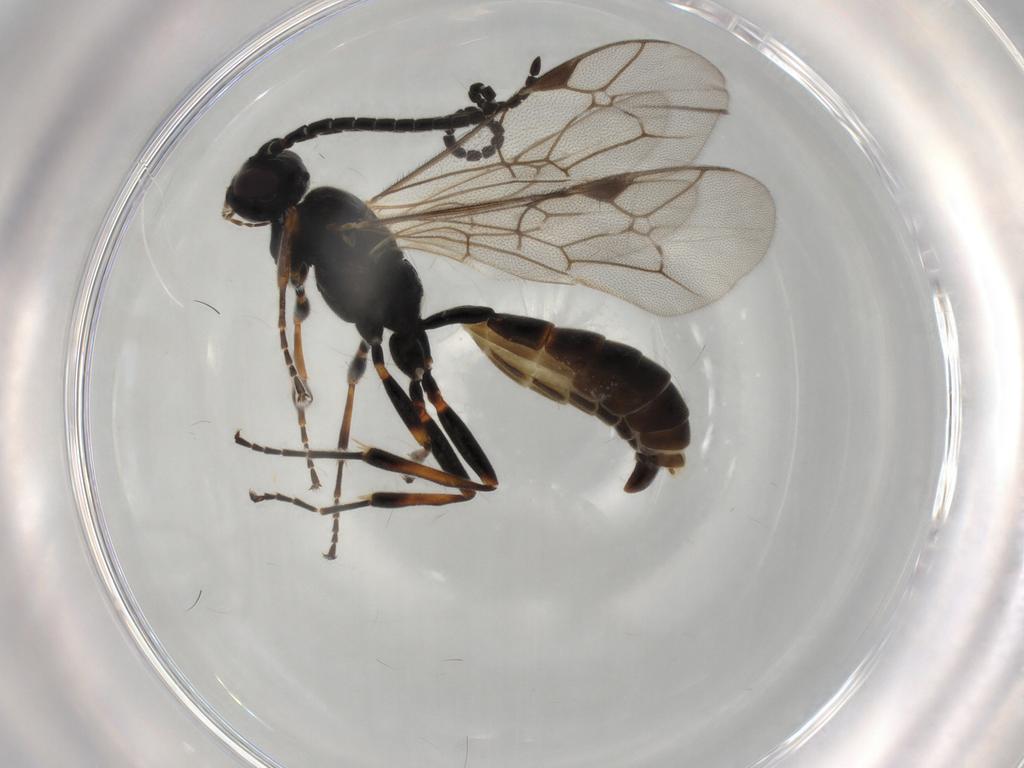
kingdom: Animalia
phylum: Arthropoda
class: Insecta
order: Hymenoptera
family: Ichneumonidae
